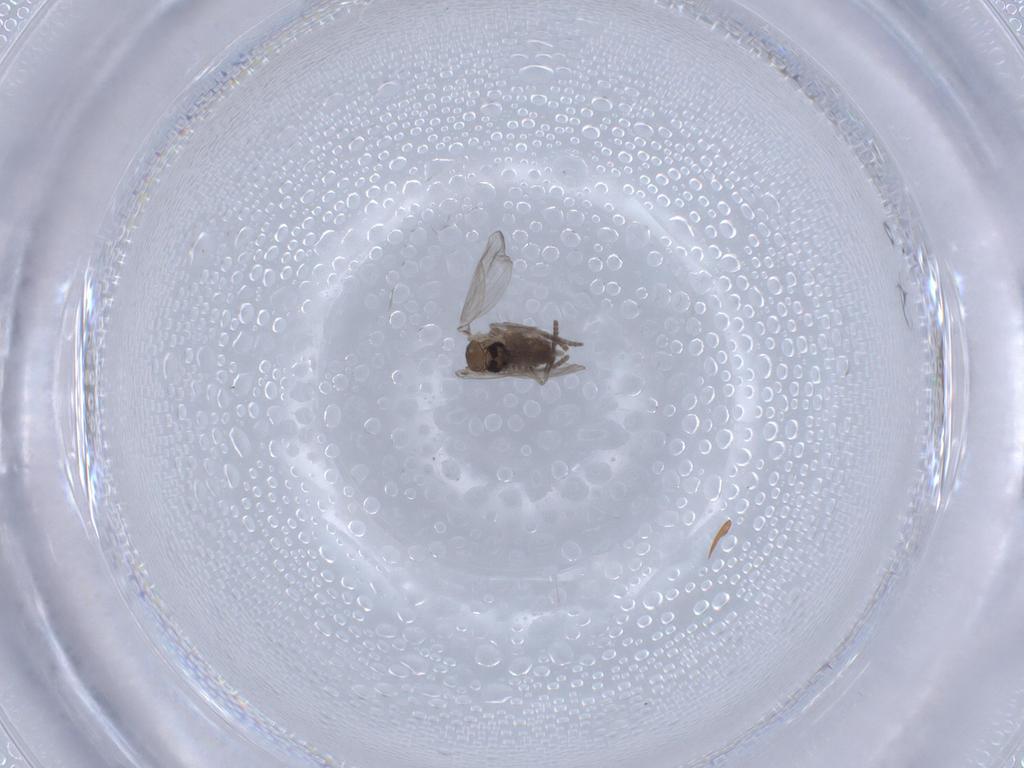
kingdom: Animalia
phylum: Arthropoda
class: Insecta
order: Diptera
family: Psychodidae
